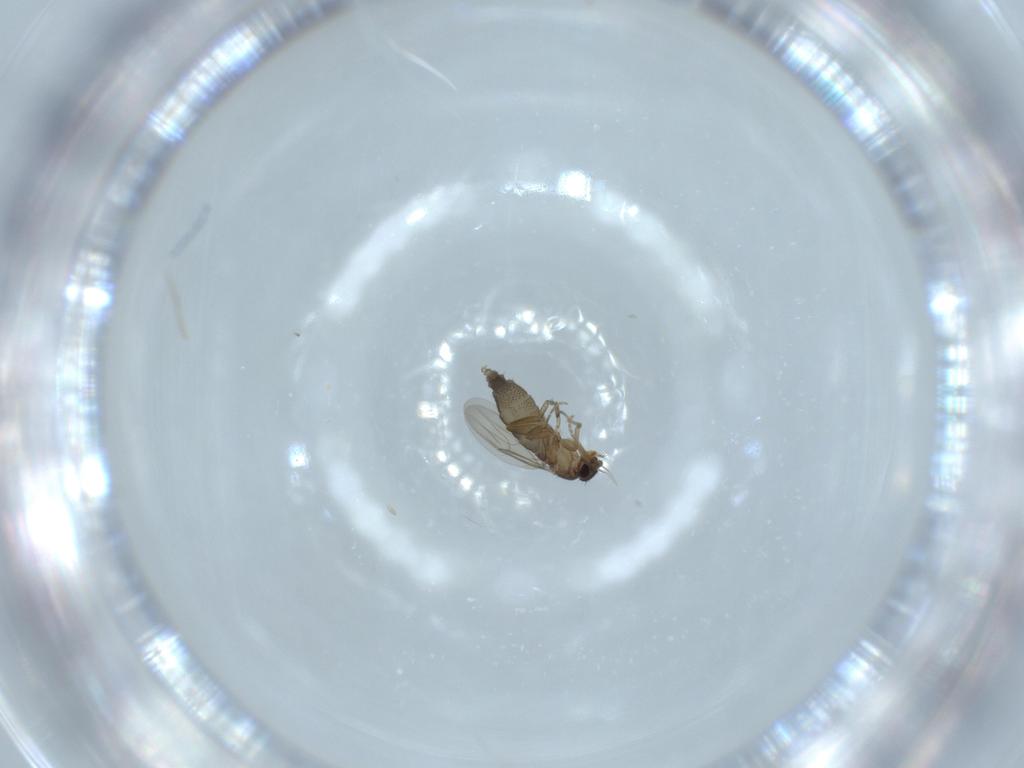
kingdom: Animalia
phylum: Arthropoda
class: Insecta
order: Diptera
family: Phoridae
